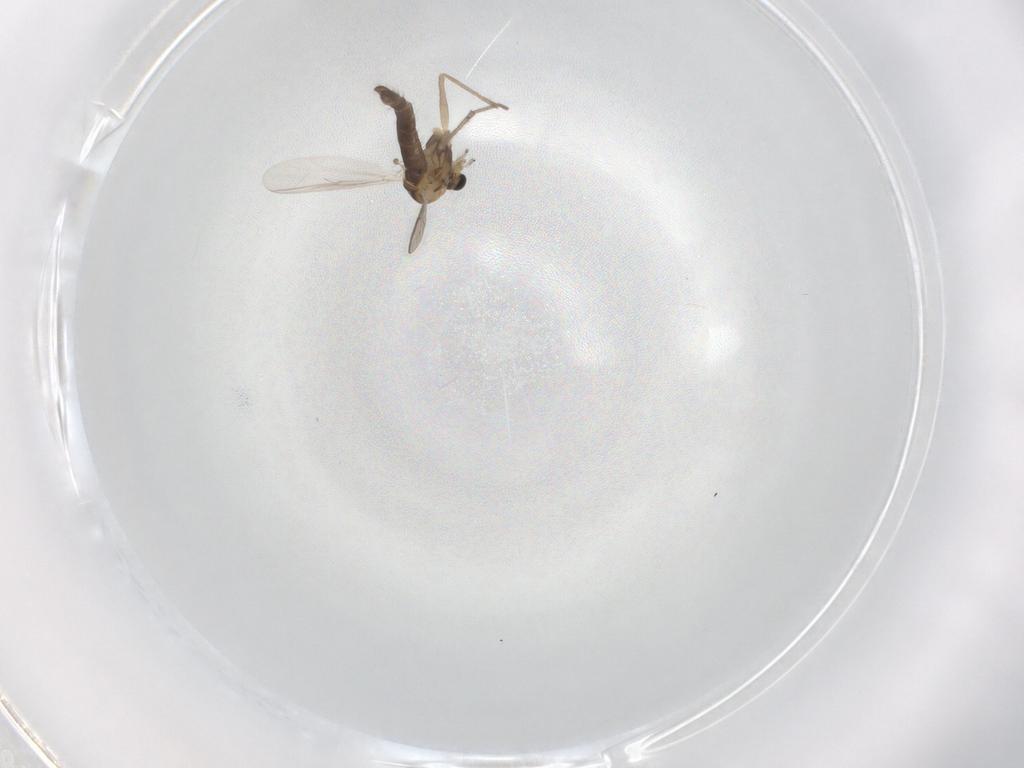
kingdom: Animalia
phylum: Arthropoda
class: Insecta
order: Diptera
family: Chironomidae
